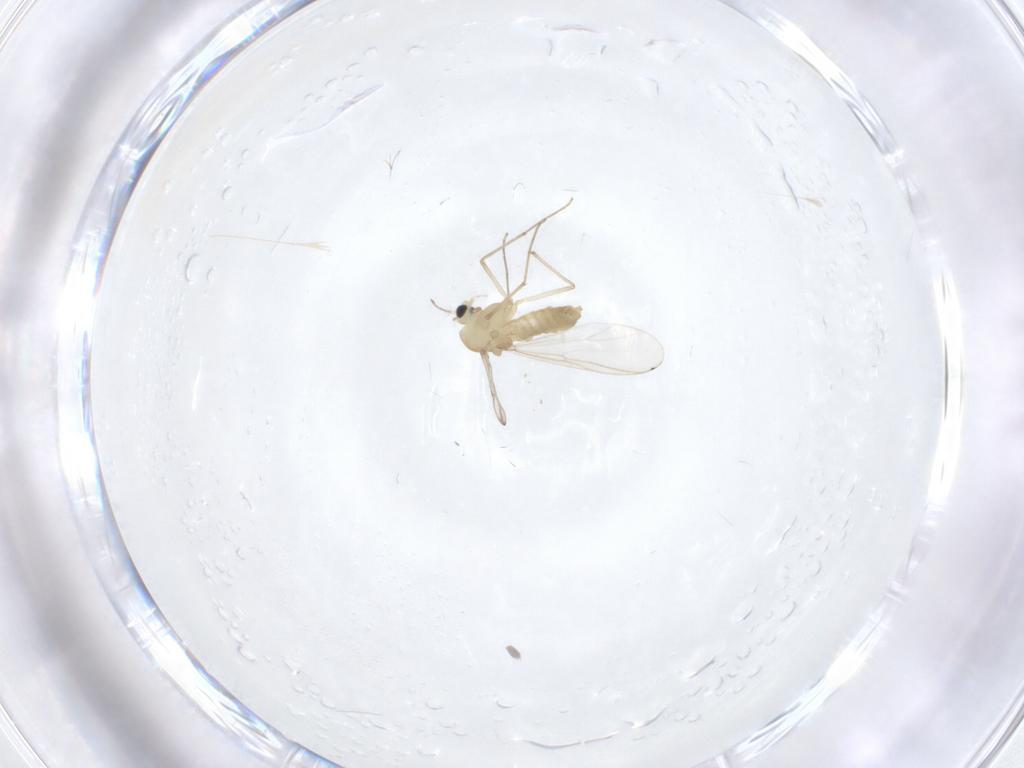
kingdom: Animalia
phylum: Arthropoda
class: Insecta
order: Diptera
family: Chironomidae
